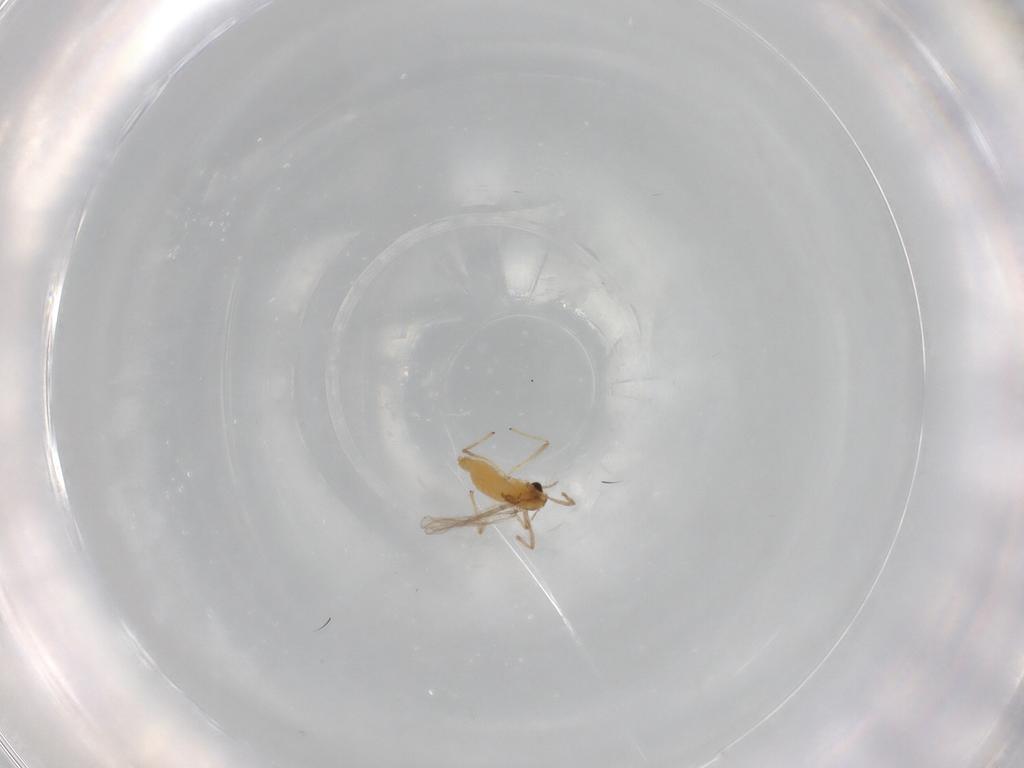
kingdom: Animalia
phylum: Arthropoda
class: Insecta
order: Diptera
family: Chironomidae
